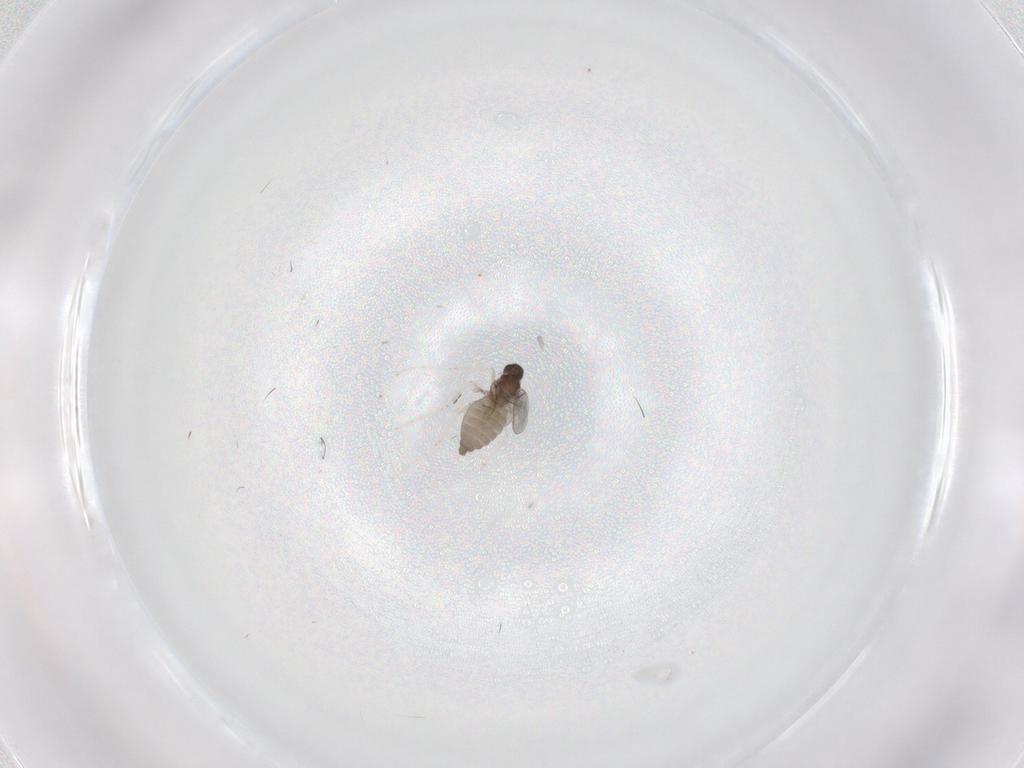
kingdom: Animalia
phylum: Arthropoda
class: Insecta
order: Diptera
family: Cecidomyiidae
